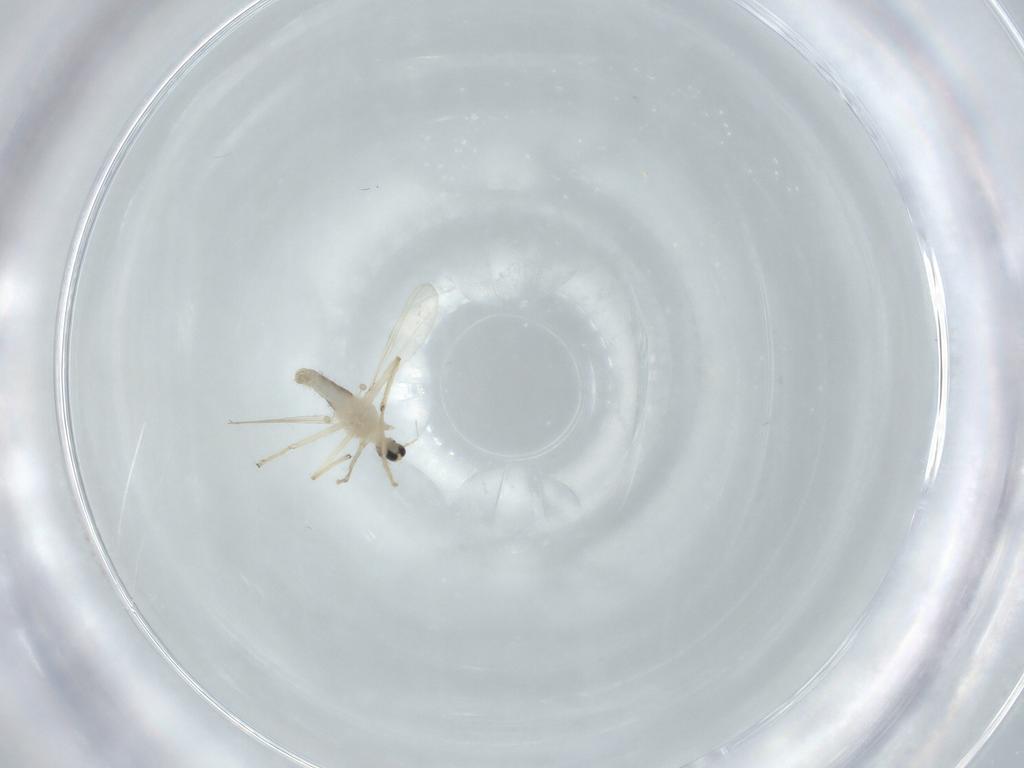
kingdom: Animalia
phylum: Arthropoda
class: Insecta
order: Diptera
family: Chironomidae
